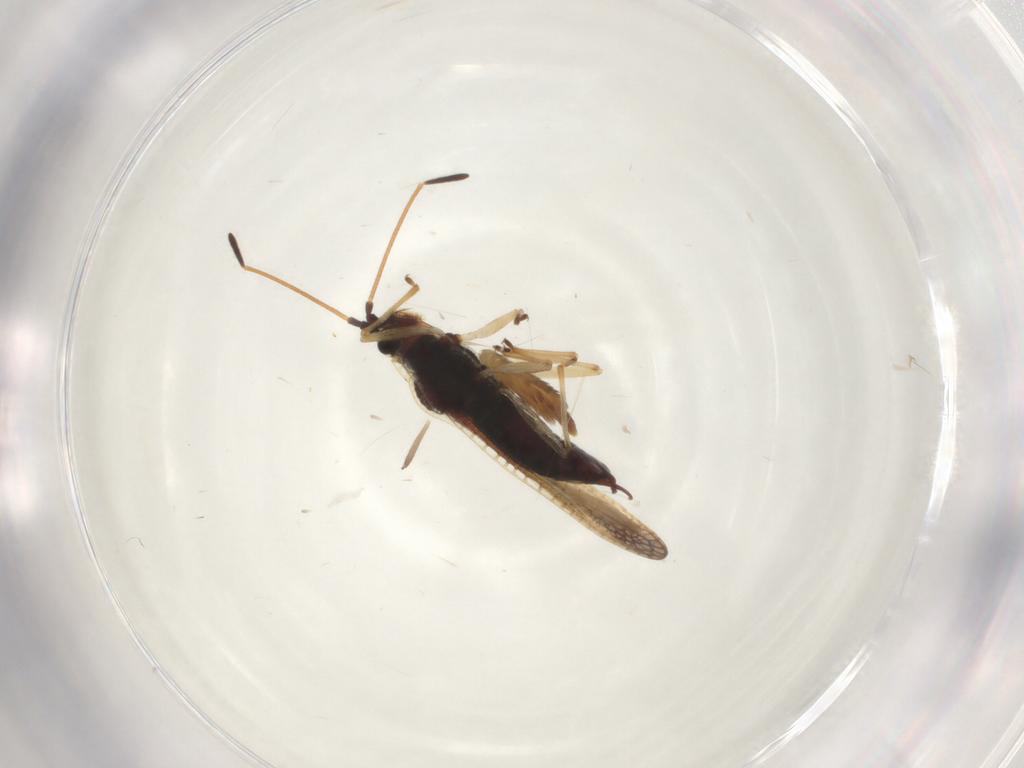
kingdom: Animalia
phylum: Arthropoda
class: Insecta
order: Hemiptera
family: Tingidae
